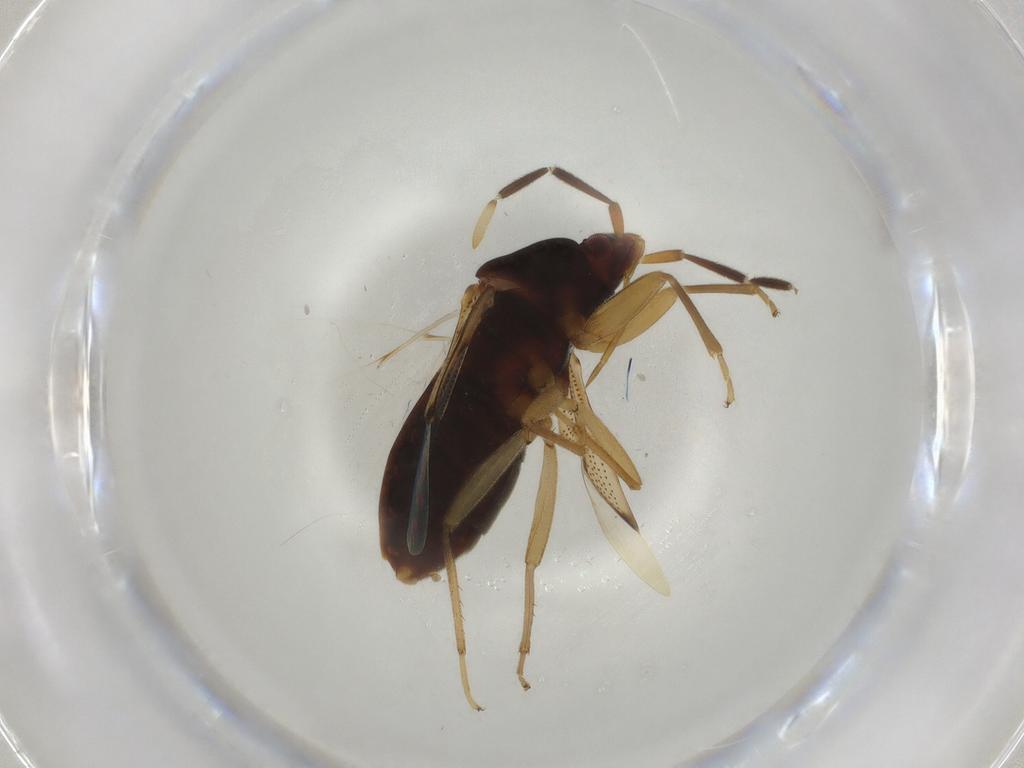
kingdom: Animalia
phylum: Arthropoda
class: Insecta
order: Hemiptera
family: Rhyparochromidae
